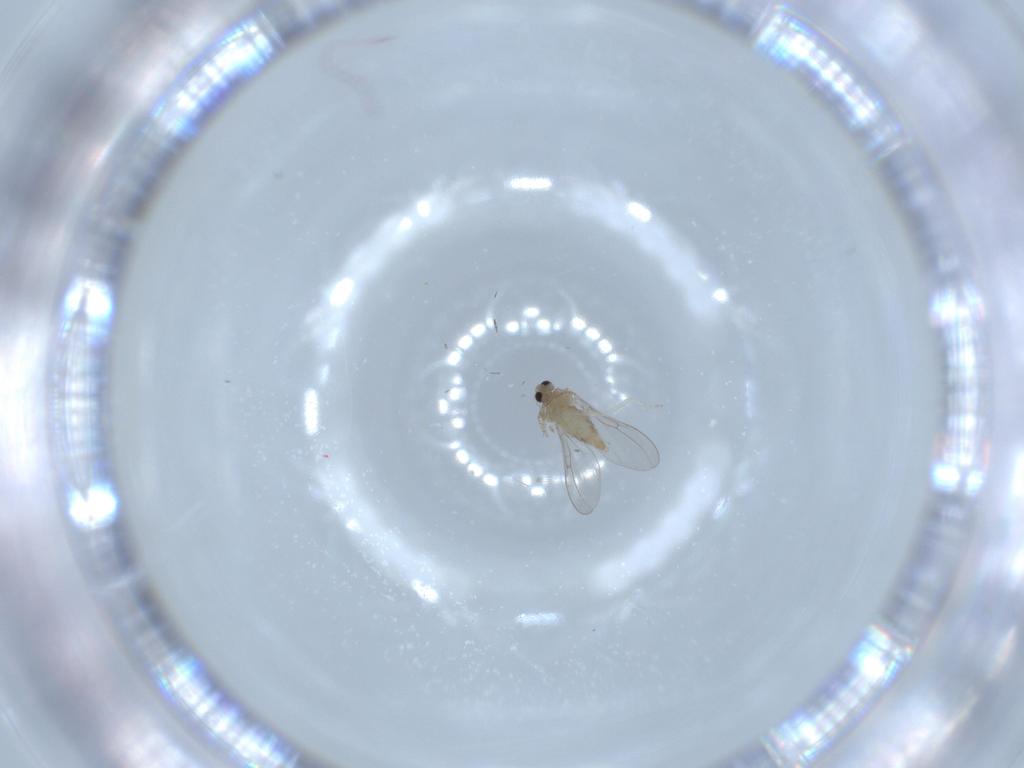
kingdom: Animalia
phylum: Arthropoda
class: Insecta
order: Diptera
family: Cecidomyiidae
